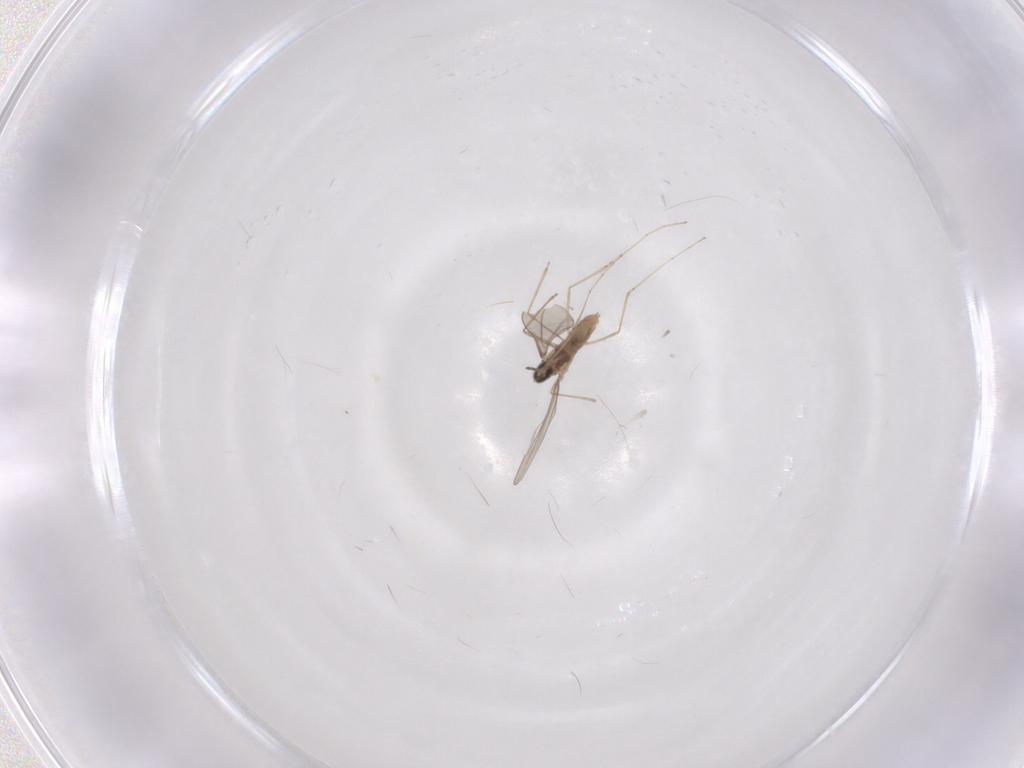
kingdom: Animalia
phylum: Arthropoda
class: Insecta
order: Diptera
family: Cecidomyiidae
